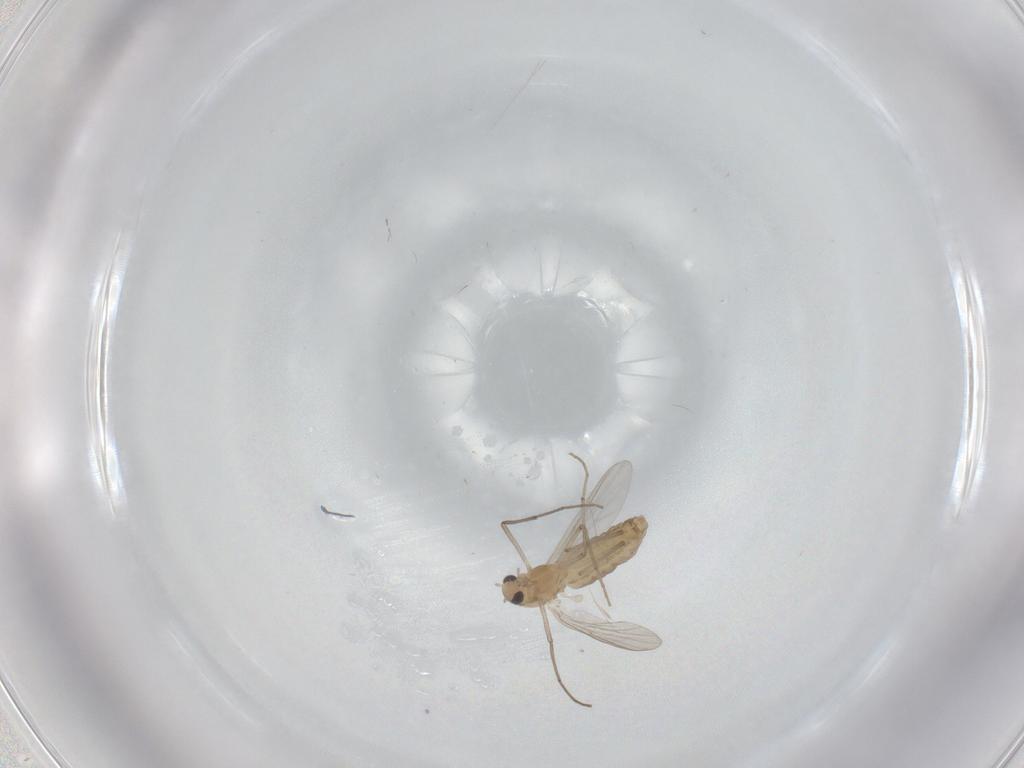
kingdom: Animalia
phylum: Arthropoda
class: Insecta
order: Diptera
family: Chironomidae
